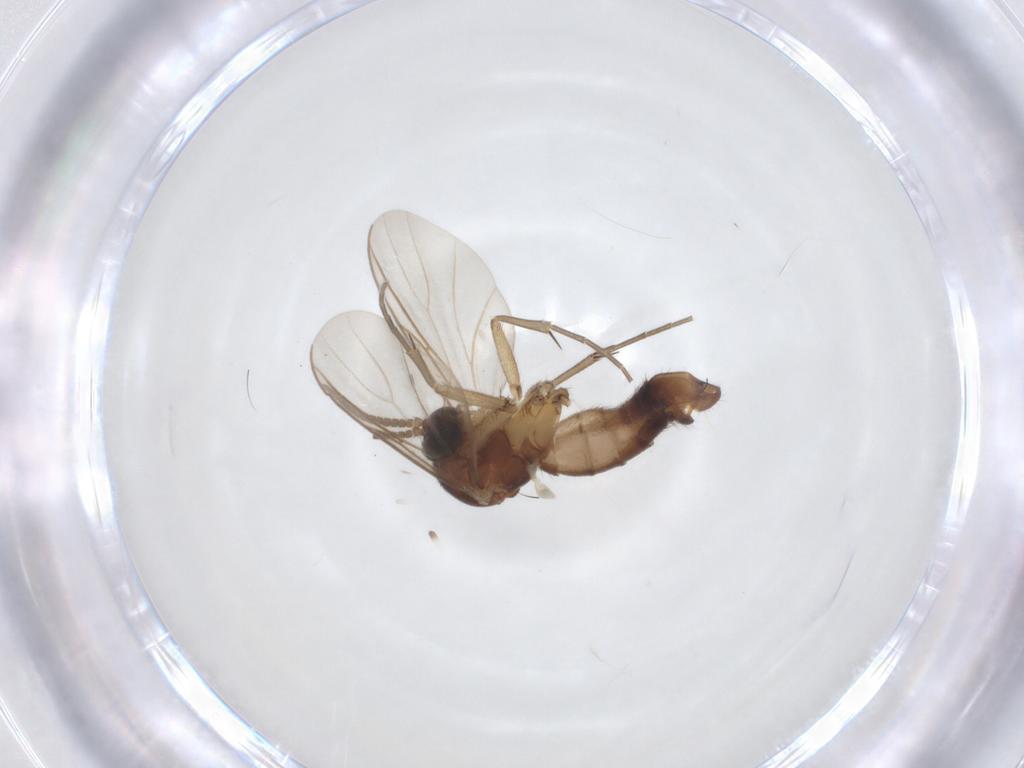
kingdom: Animalia
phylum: Arthropoda
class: Insecta
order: Diptera
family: Mycetophilidae
